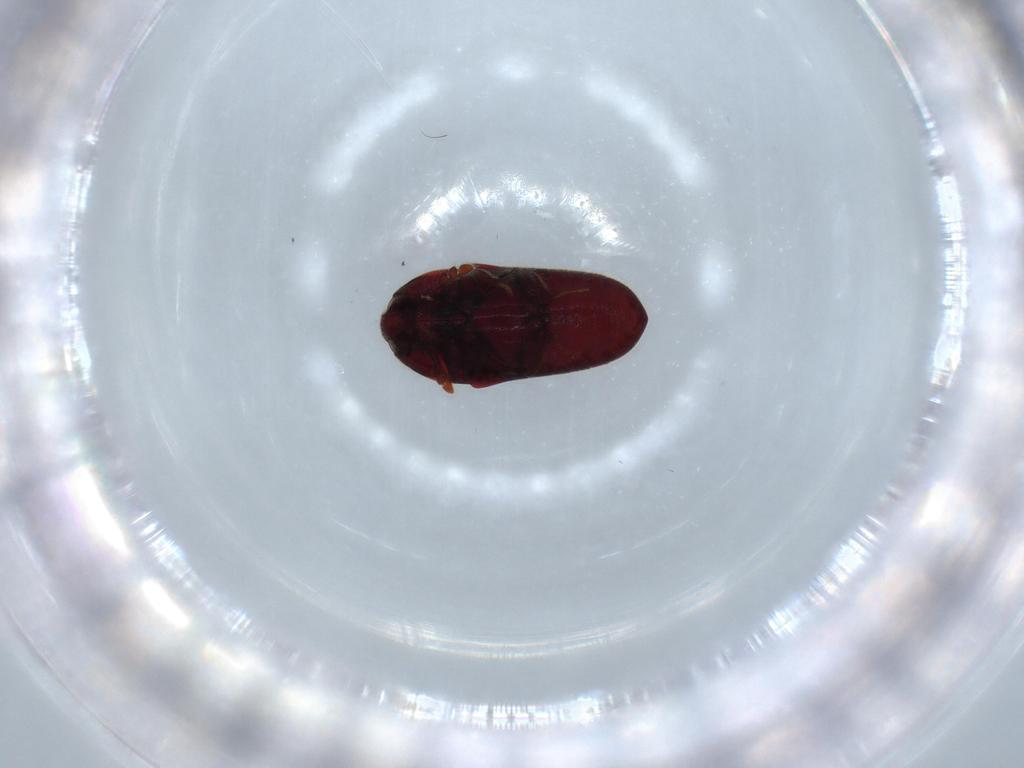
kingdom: Animalia
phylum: Arthropoda
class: Insecta
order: Coleoptera
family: Throscidae
